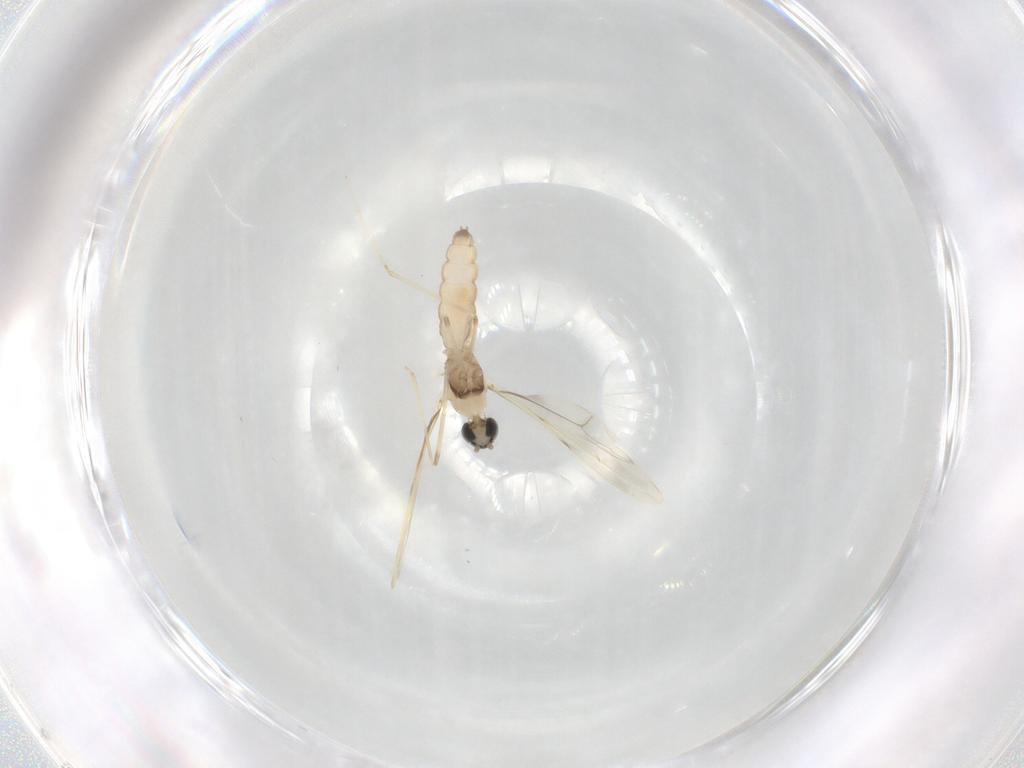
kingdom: Animalia
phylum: Arthropoda
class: Insecta
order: Diptera
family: Cecidomyiidae
